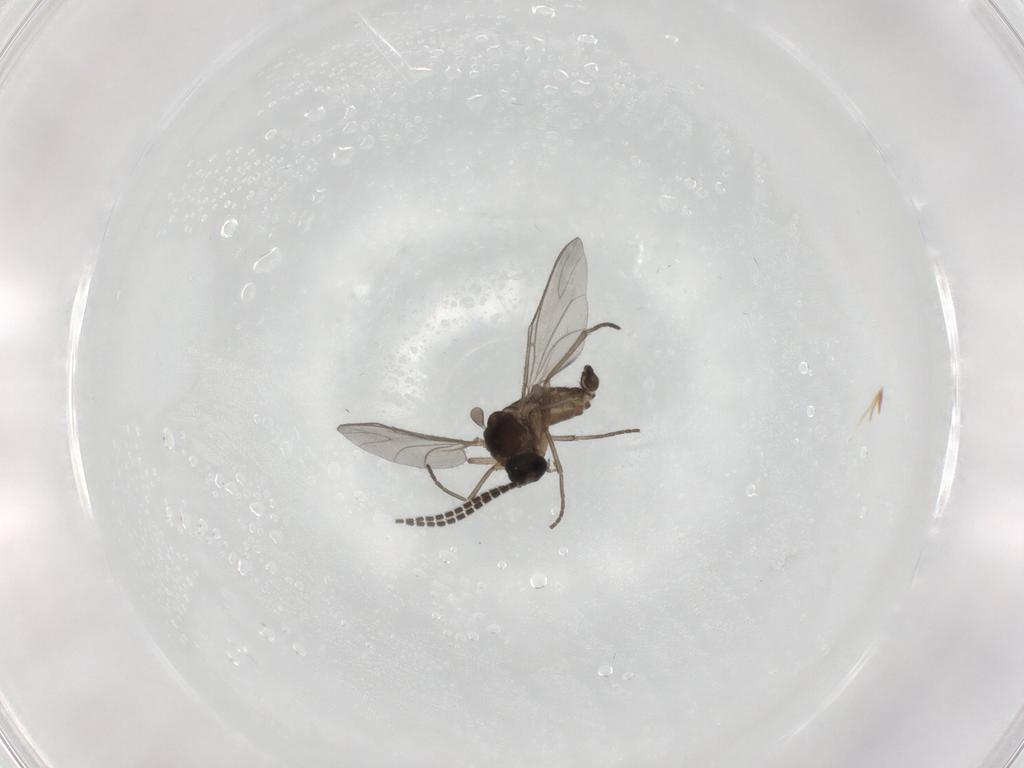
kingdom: Animalia
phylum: Arthropoda
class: Insecta
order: Diptera
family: Sciaridae
